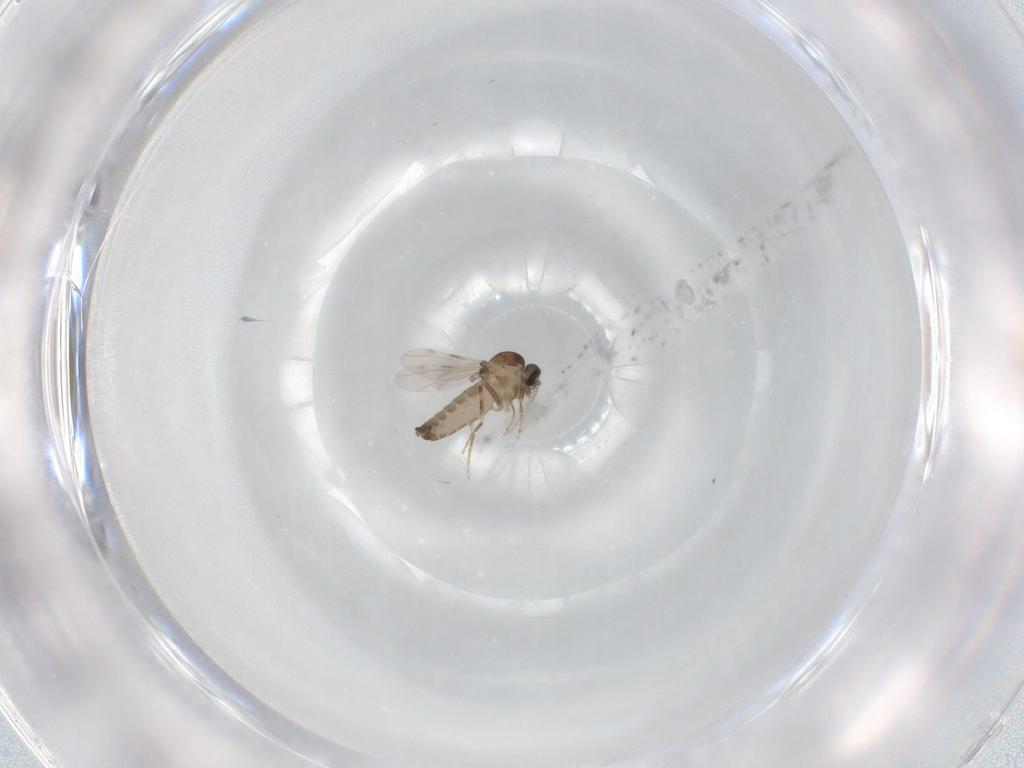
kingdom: Animalia
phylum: Arthropoda
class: Insecta
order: Diptera
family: Ceratopogonidae
